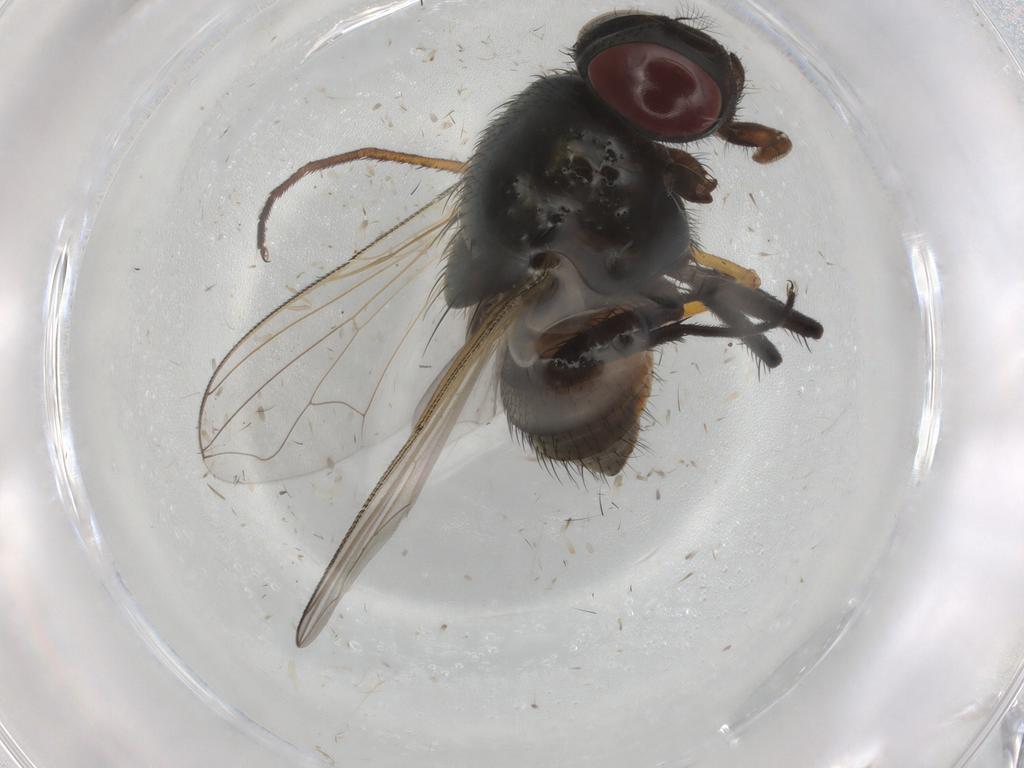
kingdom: Animalia
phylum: Arthropoda
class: Insecta
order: Diptera
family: Muscidae
